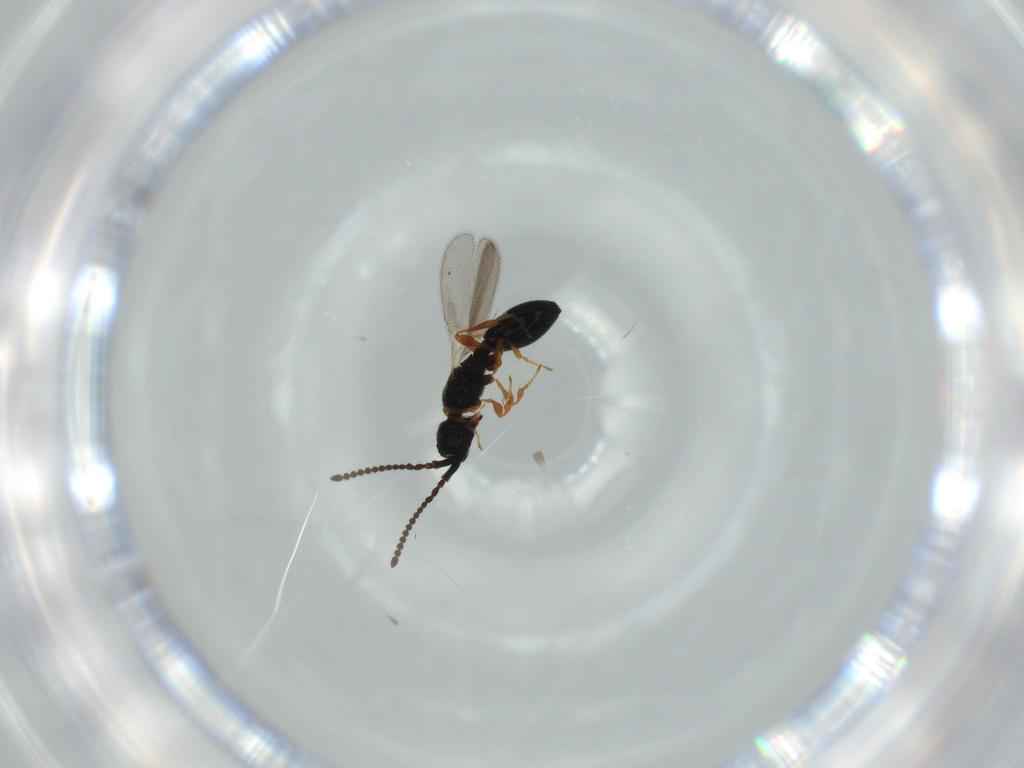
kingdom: Animalia
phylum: Arthropoda
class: Insecta
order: Hymenoptera
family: Diapriidae
